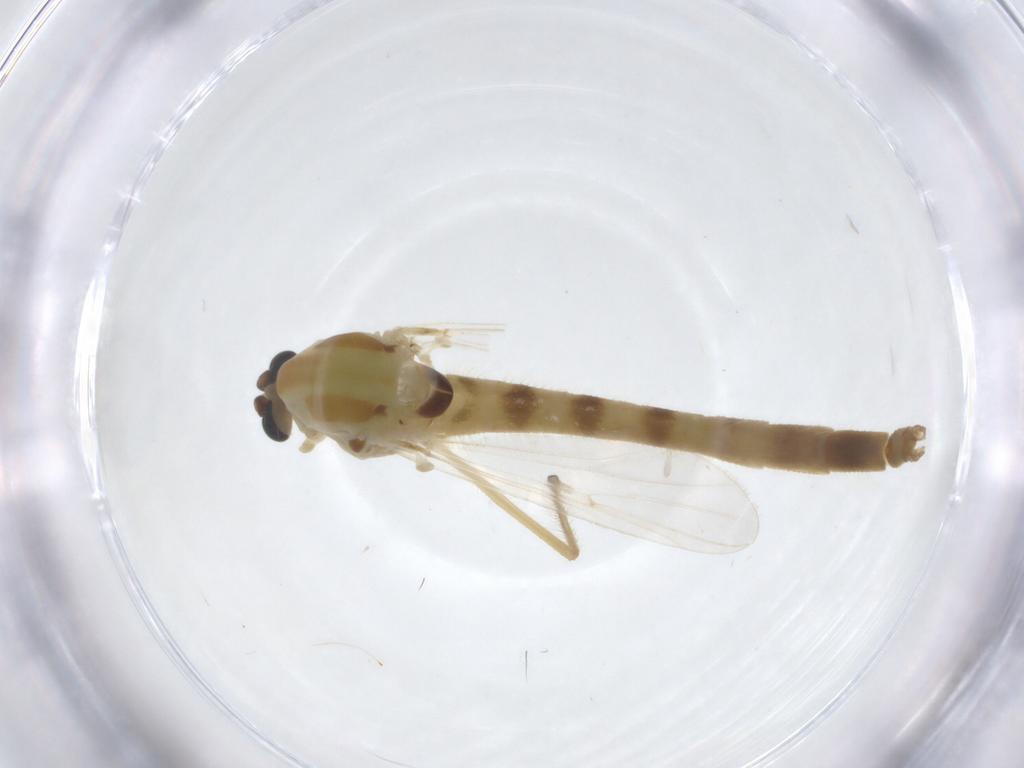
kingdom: Animalia
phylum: Arthropoda
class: Insecta
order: Diptera
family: Chironomidae
